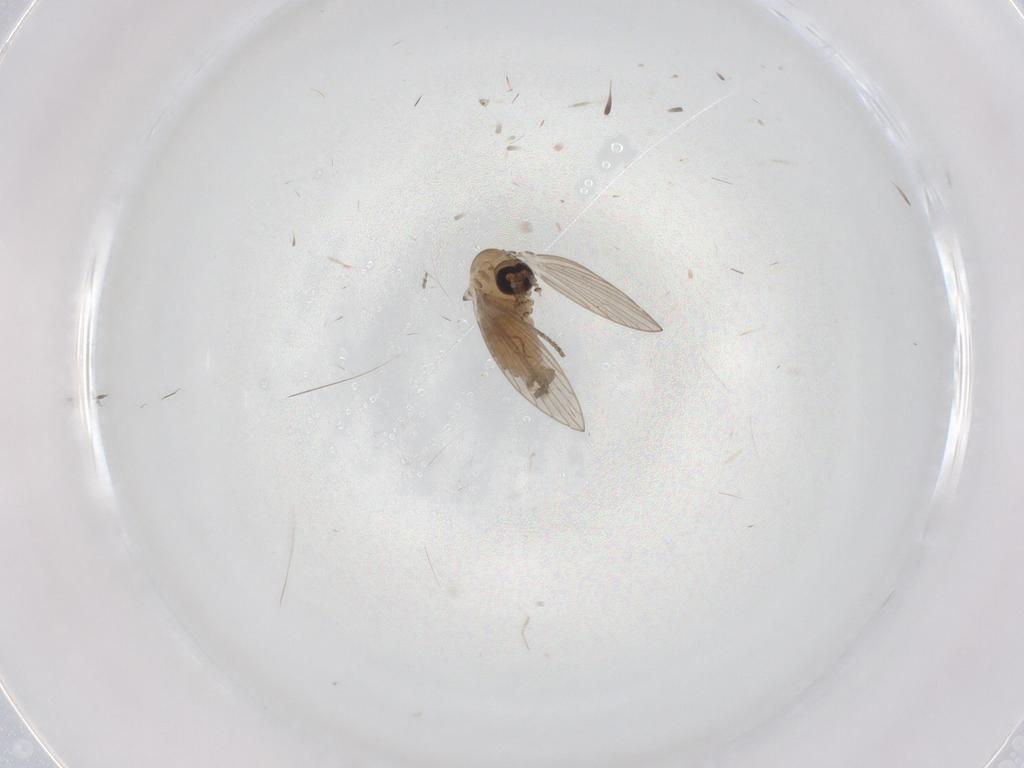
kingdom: Animalia
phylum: Arthropoda
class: Insecta
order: Diptera
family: Psychodidae
